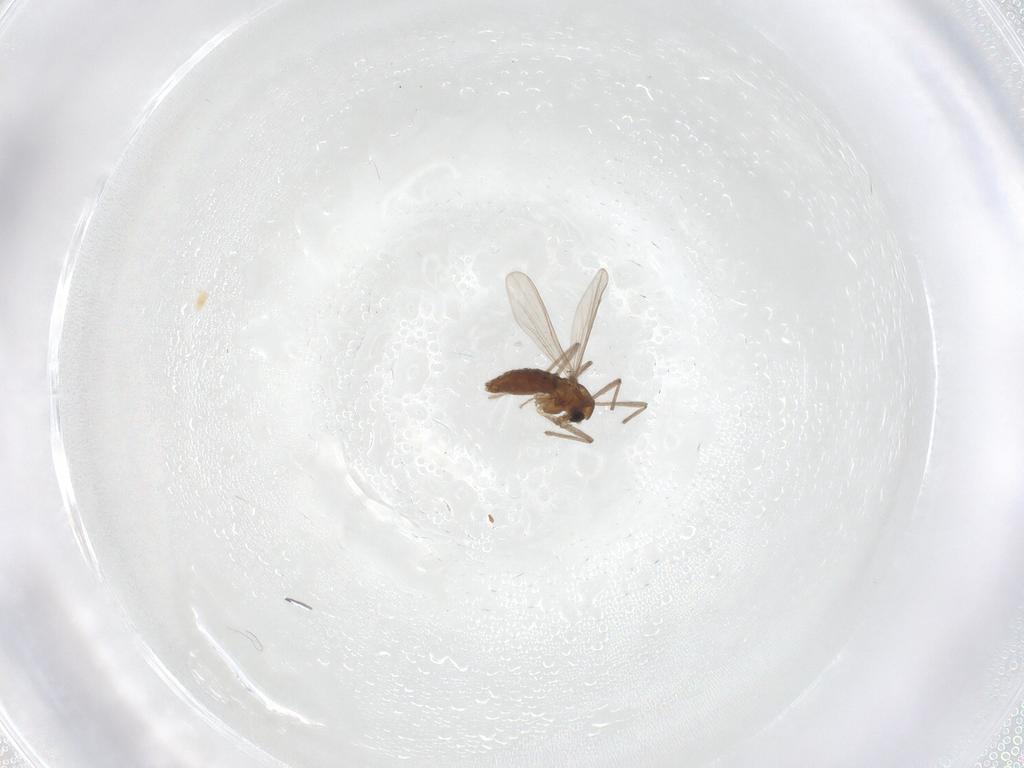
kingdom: Animalia
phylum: Arthropoda
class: Insecta
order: Diptera
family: Chironomidae
